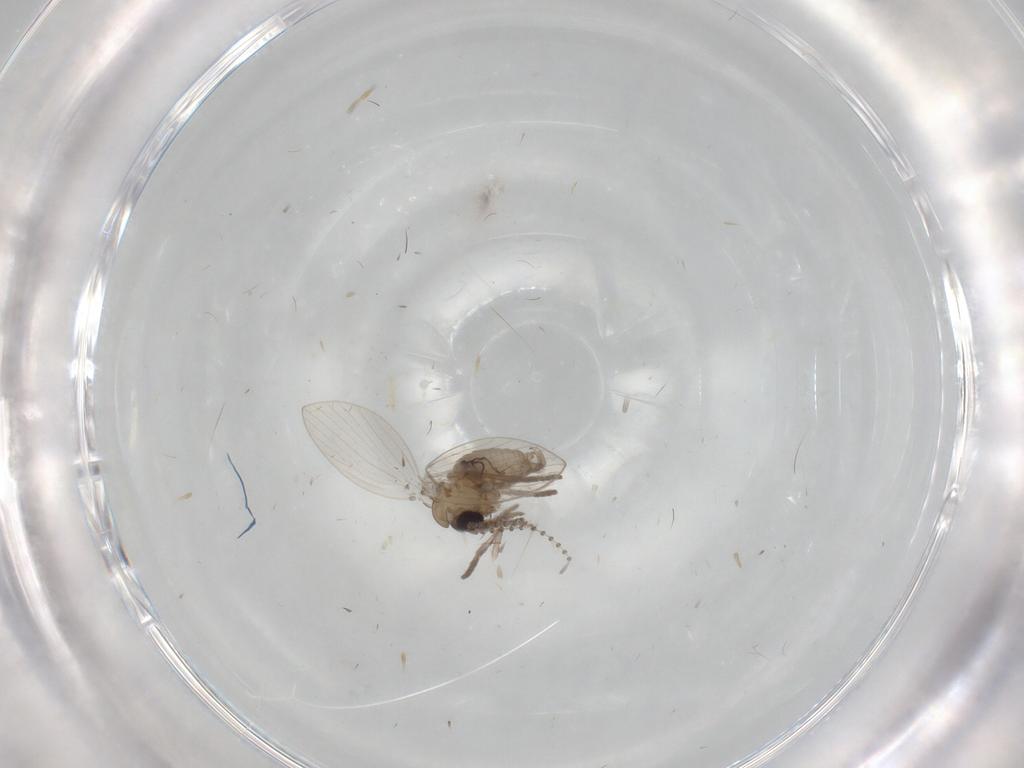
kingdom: Animalia
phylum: Arthropoda
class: Insecta
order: Diptera
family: Psychodidae
